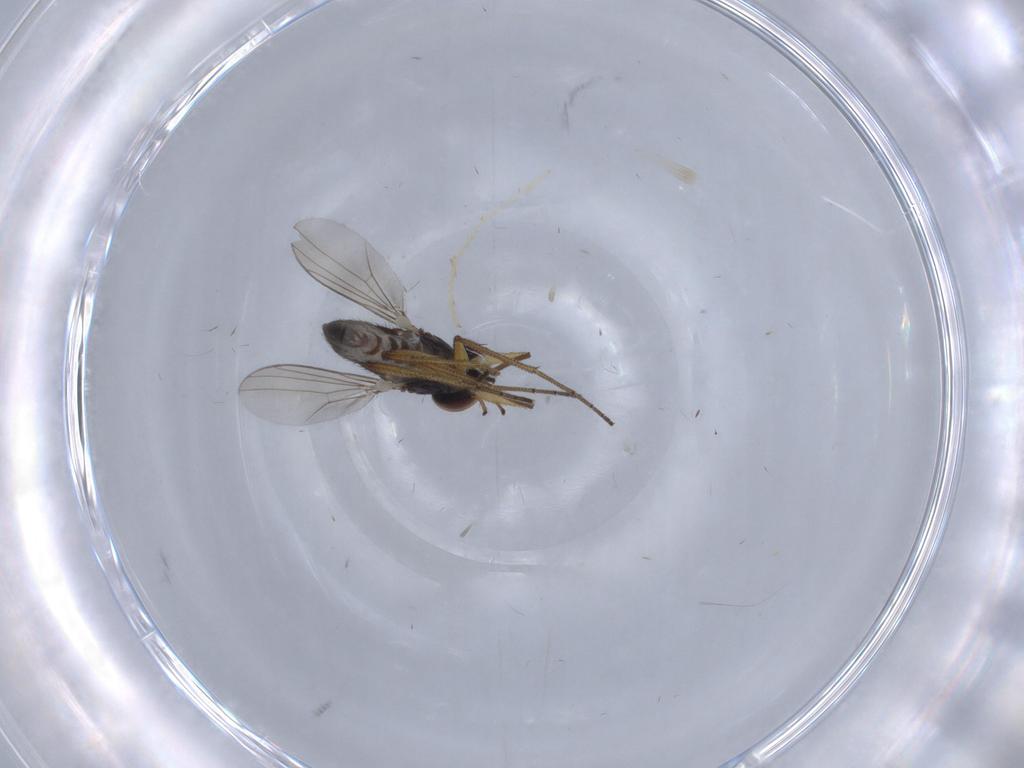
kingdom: Animalia
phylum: Arthropoda
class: Insecta
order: Diptera
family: Dolichopodidae
